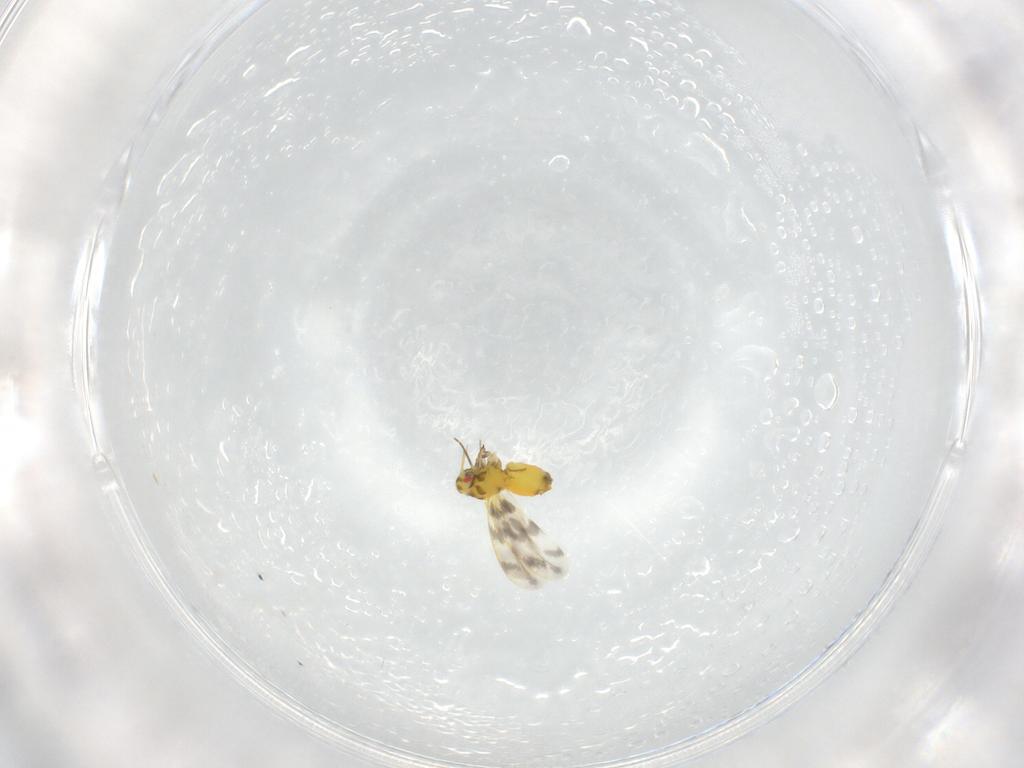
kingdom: Animalia
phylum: Arthropoda
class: Insecta
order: Hemiptera
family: Aleyrodidae
